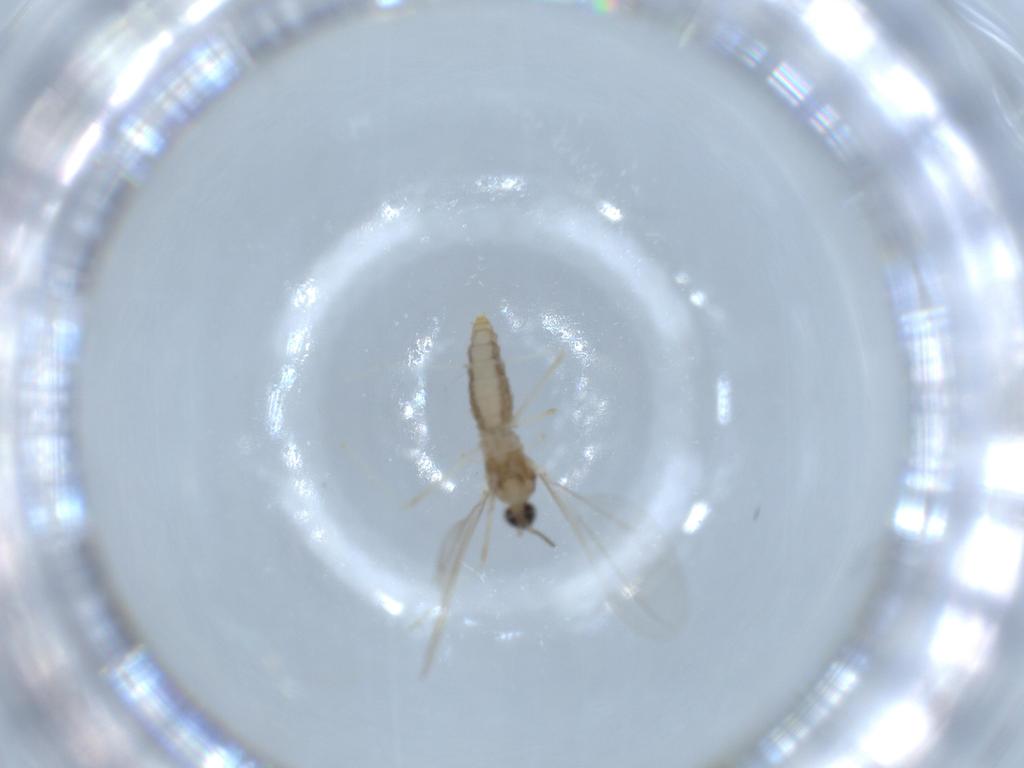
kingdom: Animalia
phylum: Arthropoda
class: Insecta
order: Diptera
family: Cecidomyiidae
